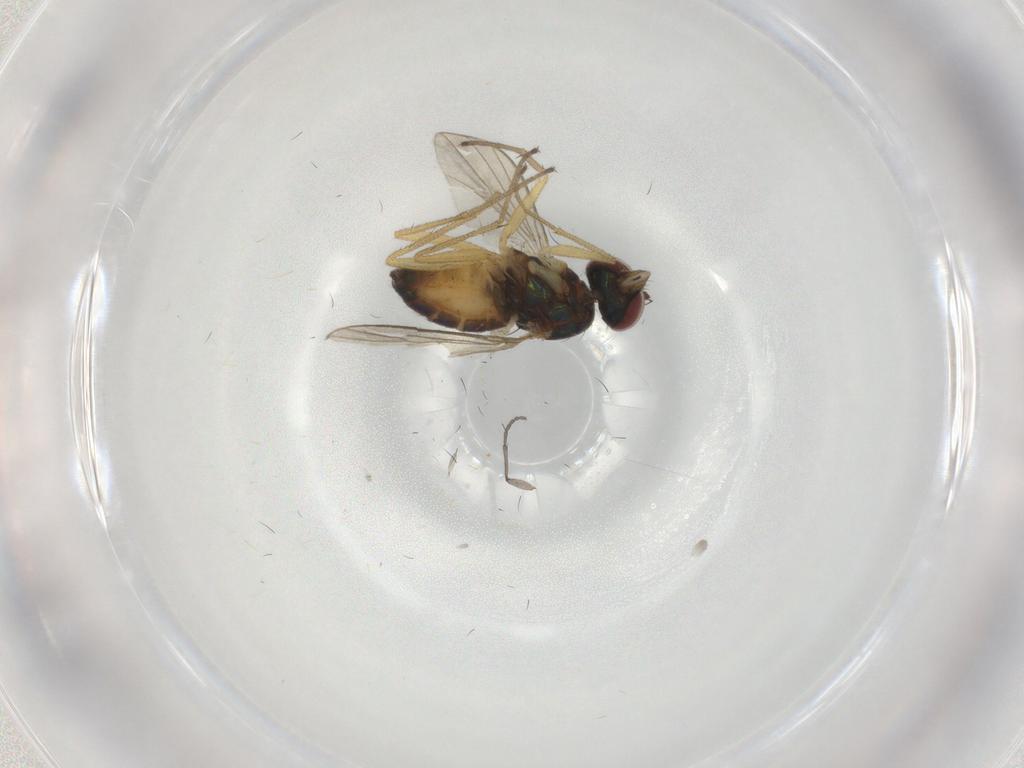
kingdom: Animalia
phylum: Arthropoda
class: Insecta
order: Diptera
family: Dolichopodidae
